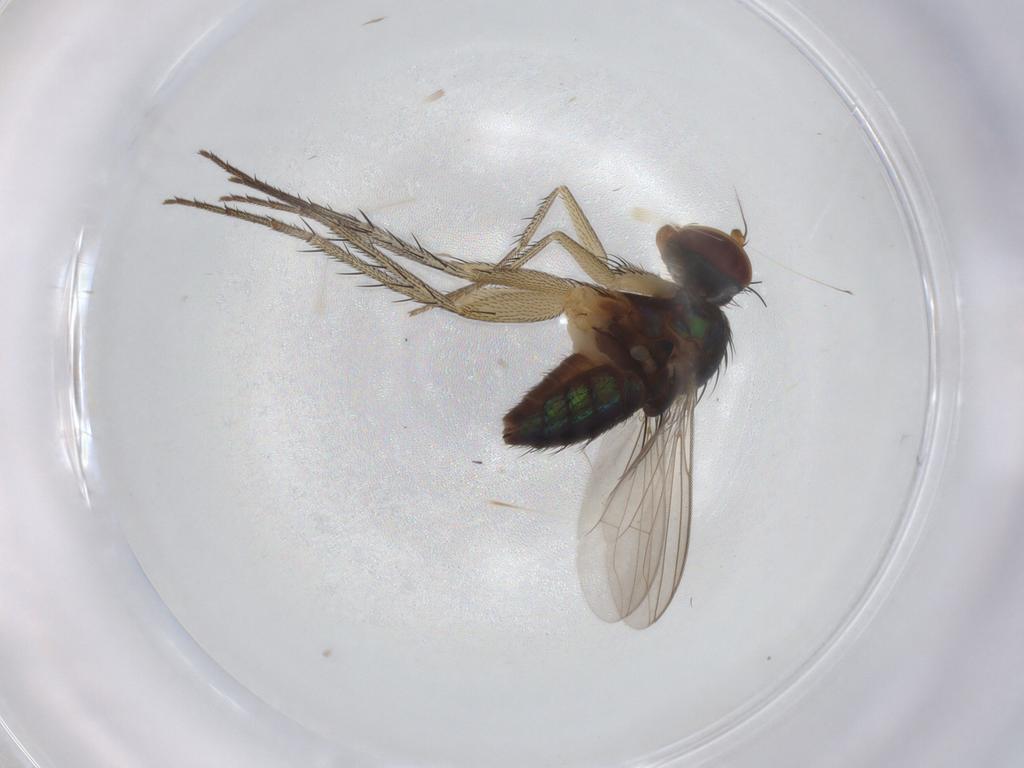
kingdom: Animalia
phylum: Arthropoda
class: Insecta
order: Diptera
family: Dolichopodidae
